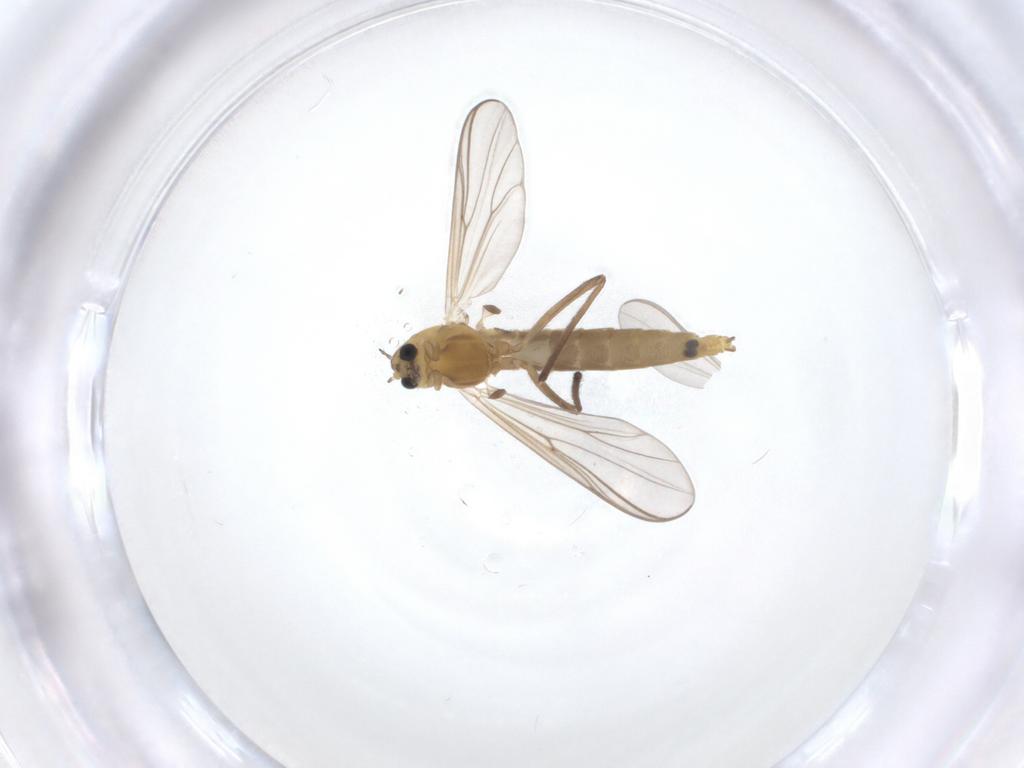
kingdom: Animalia
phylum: Arthropoda
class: Insecta
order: Diptera
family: Chironomidae
